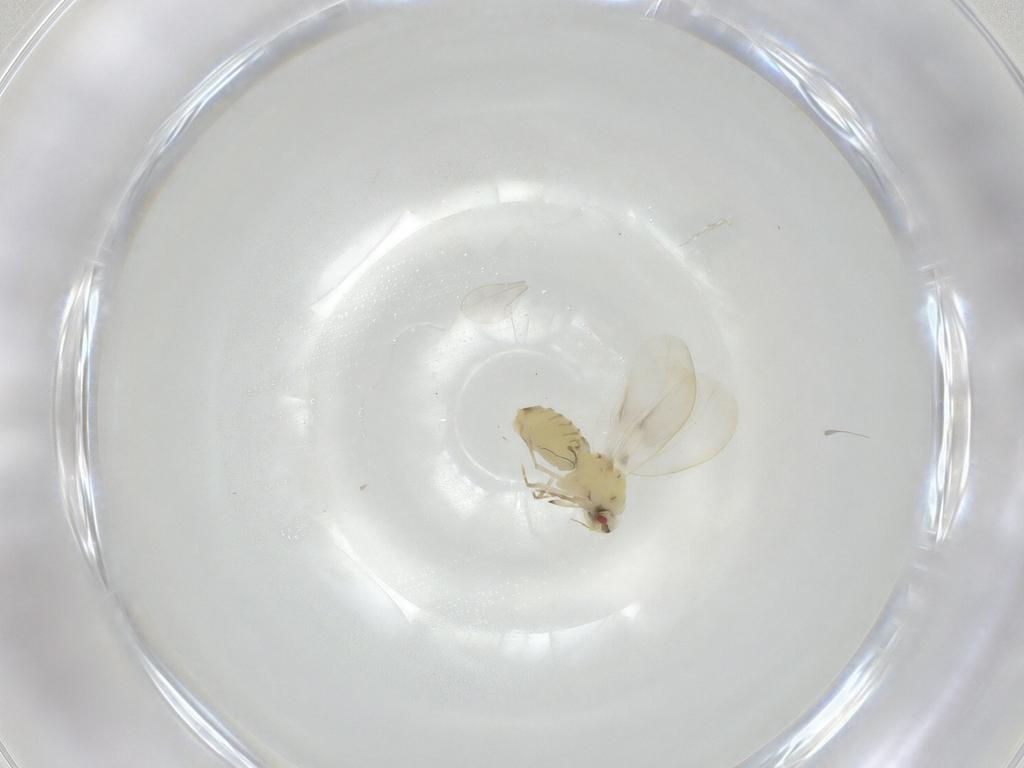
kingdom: Animalia
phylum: Arthropoda
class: Insecta
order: Hemiptera
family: Aleyrodidae
